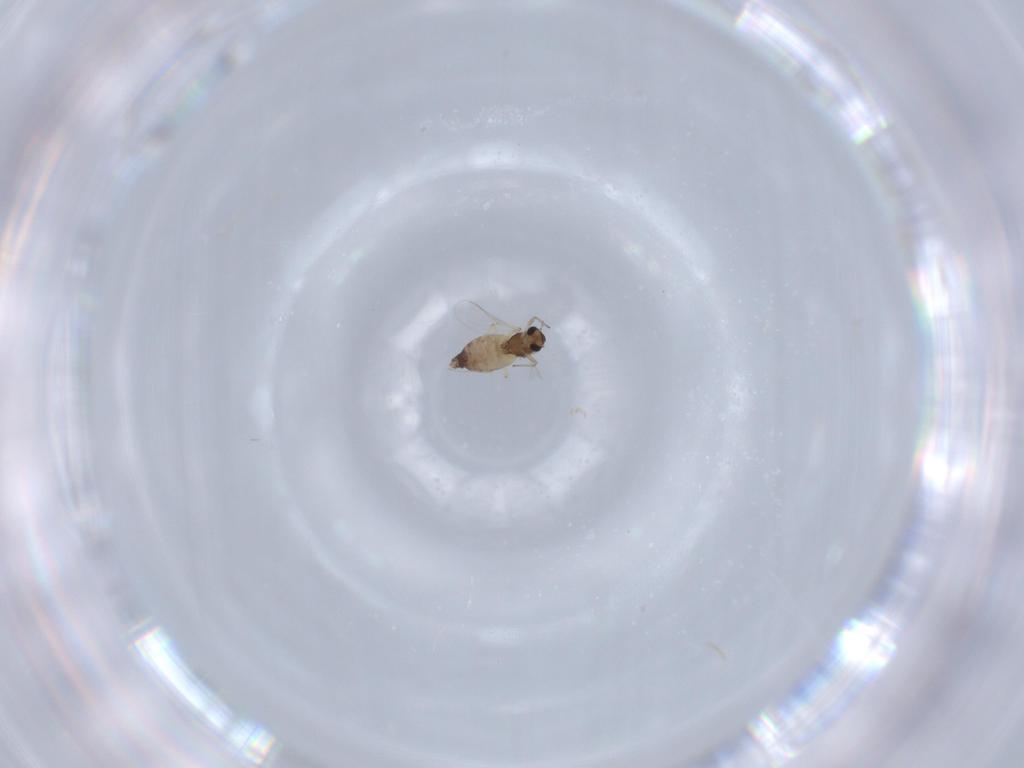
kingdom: Animalia
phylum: Arthropoda
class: Insecta
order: Diptera
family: Chironomidae
